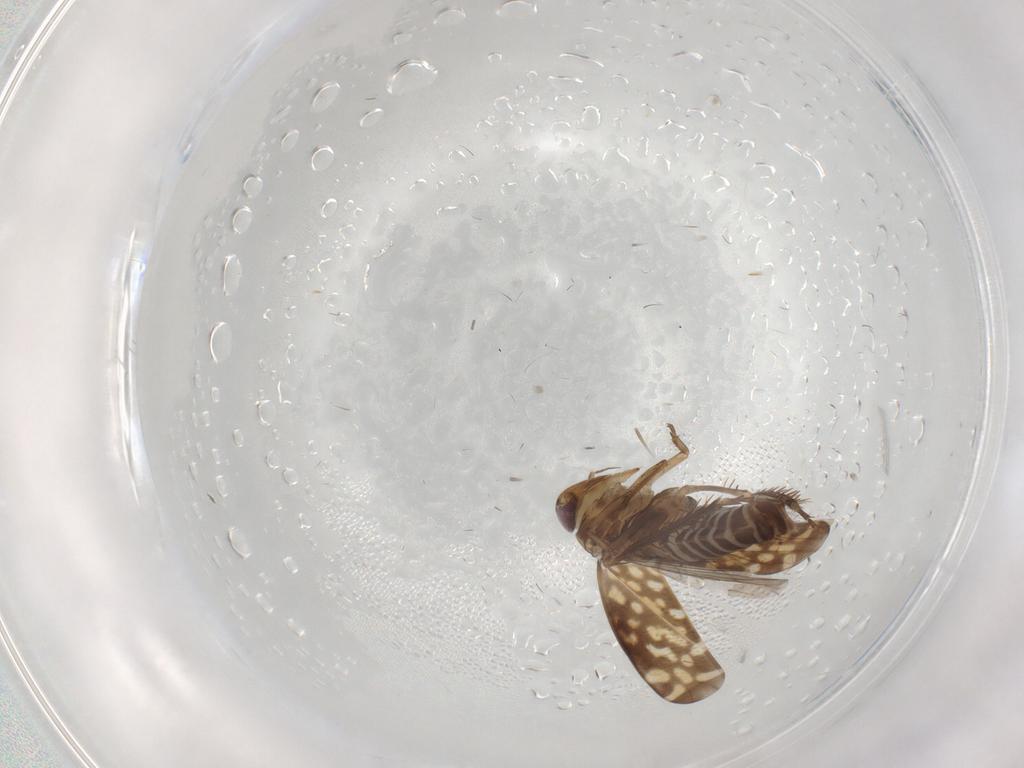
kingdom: Animalia
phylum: Arthropoda
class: Insecta
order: Hemiptera
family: Cicadellidae
